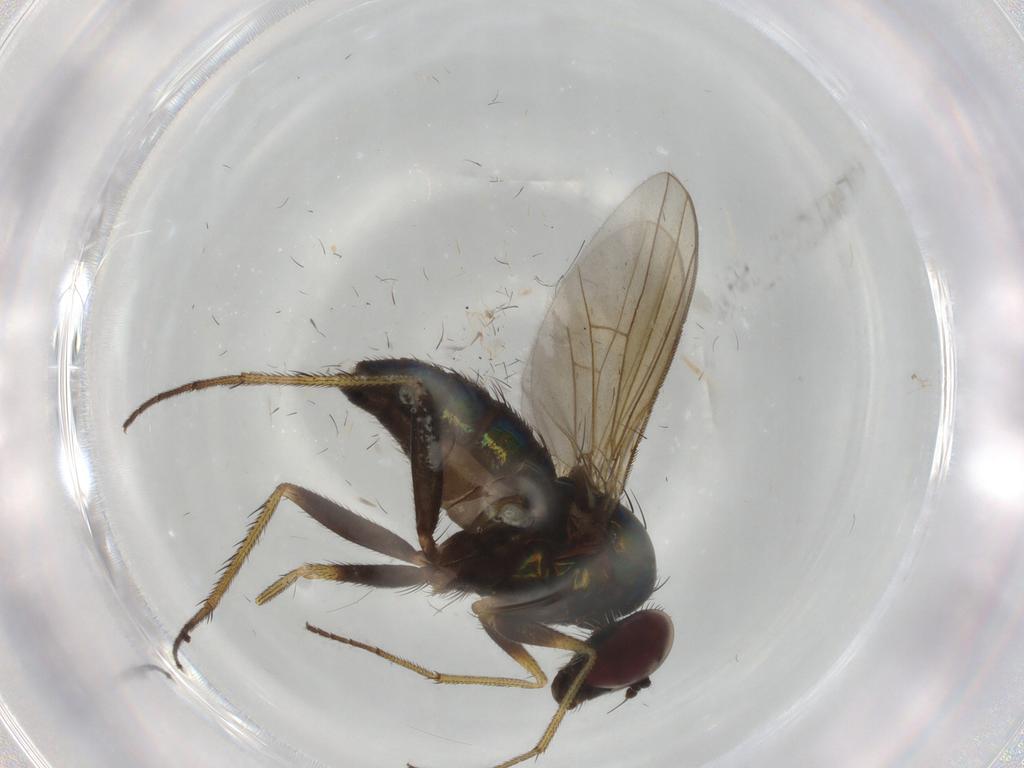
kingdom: Animalia
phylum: Arthropoda
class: Insecta
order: Diptera
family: Dolichopodidae
